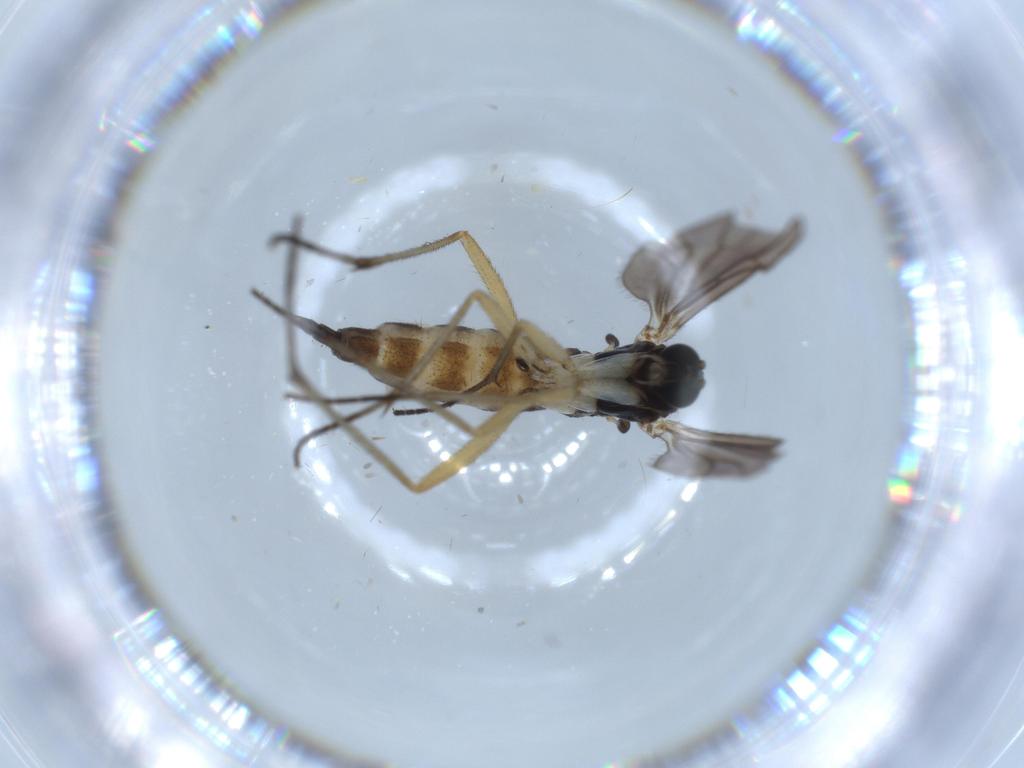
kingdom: Animalia
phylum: Arthropoda
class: Insecta
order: Diptera
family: Sciaridae
